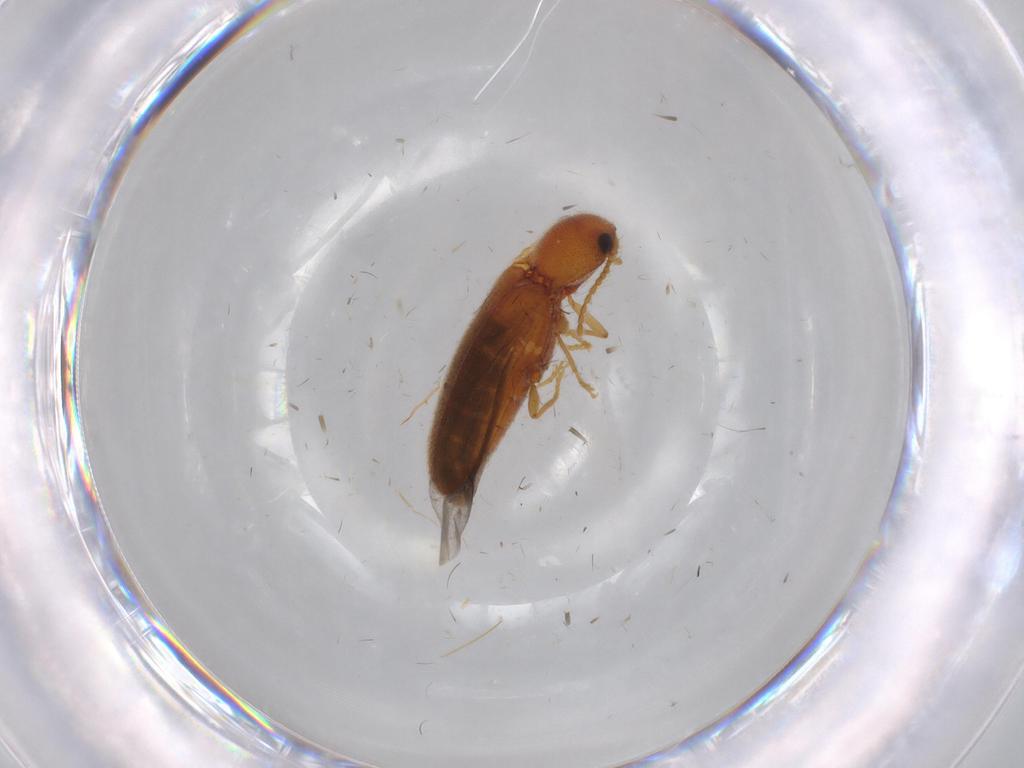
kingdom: Animalia
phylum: Arthropoda
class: Insecta
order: Coleoptera
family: Elateridae
